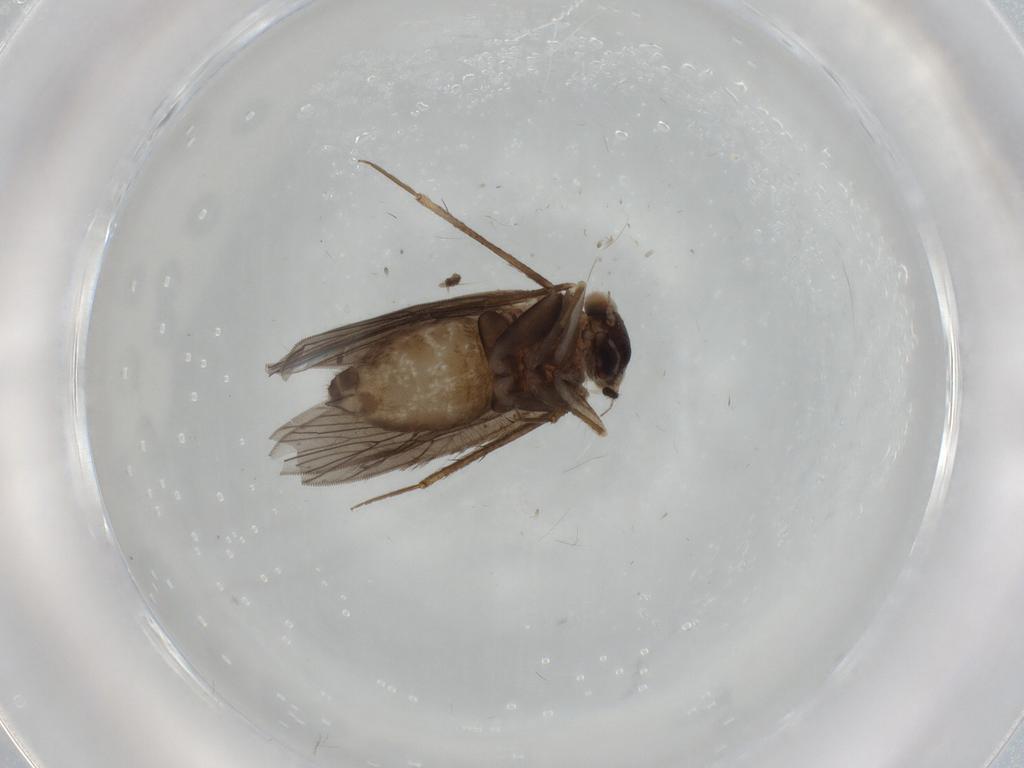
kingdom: Animalia
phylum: Arthropoda
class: Insecta
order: Psocodea
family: Lepidopsocidae
